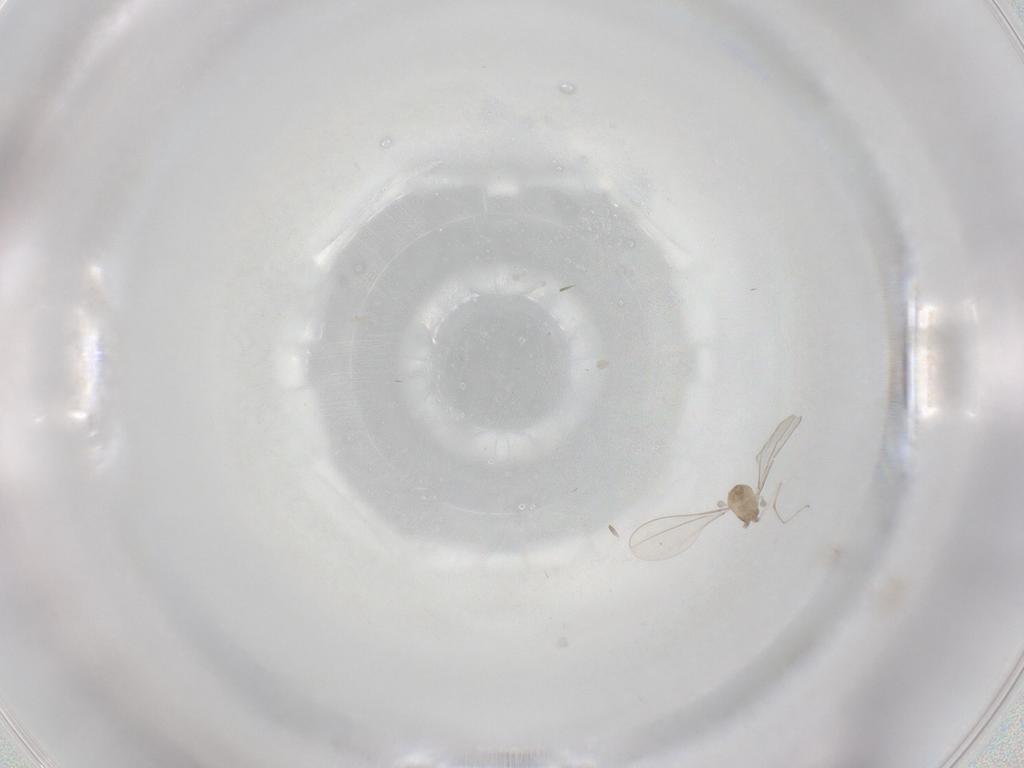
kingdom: Animalia
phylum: Arthropoda
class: Insecta
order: Diptera
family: Cecidomyiidae
